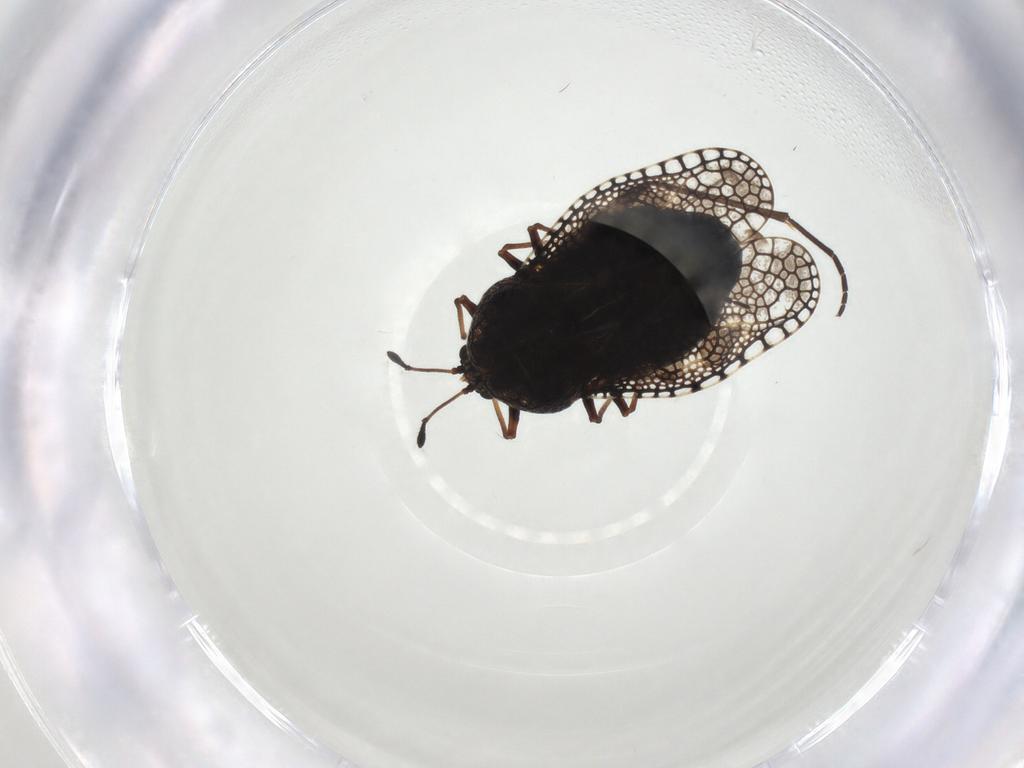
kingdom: Animalia
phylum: Arthropoda
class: Insecta
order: Hemiptera
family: Tingidae
